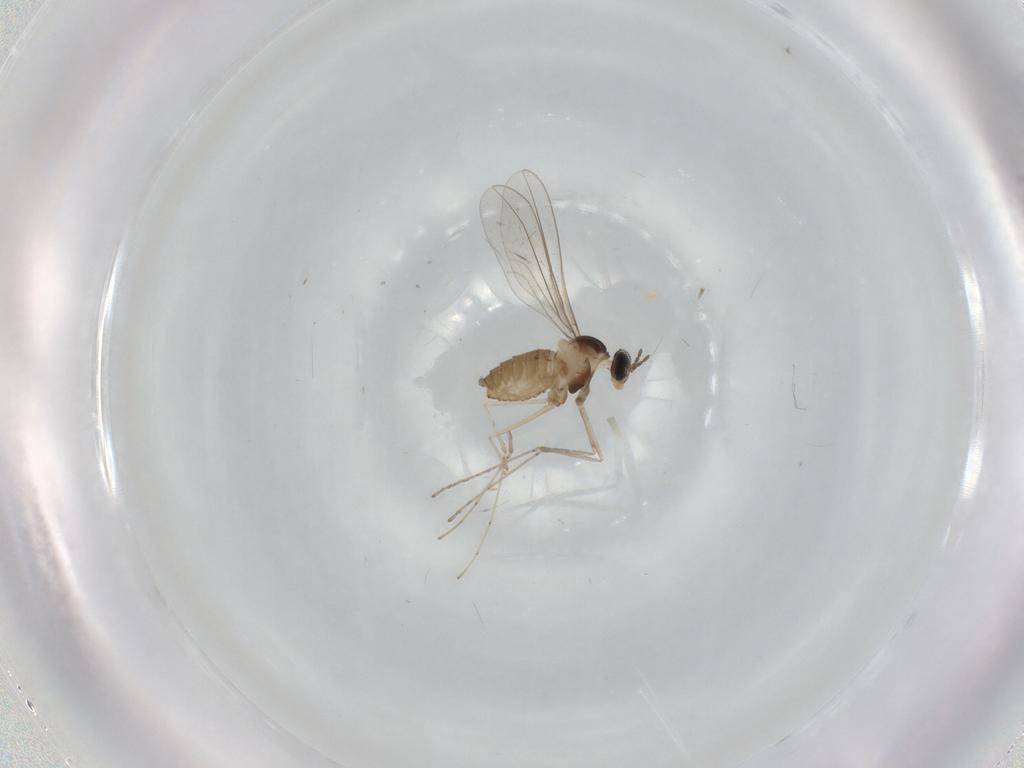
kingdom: Animalia
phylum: Arthropoda
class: Insecta
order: Diptera
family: Cecidomyiidae
